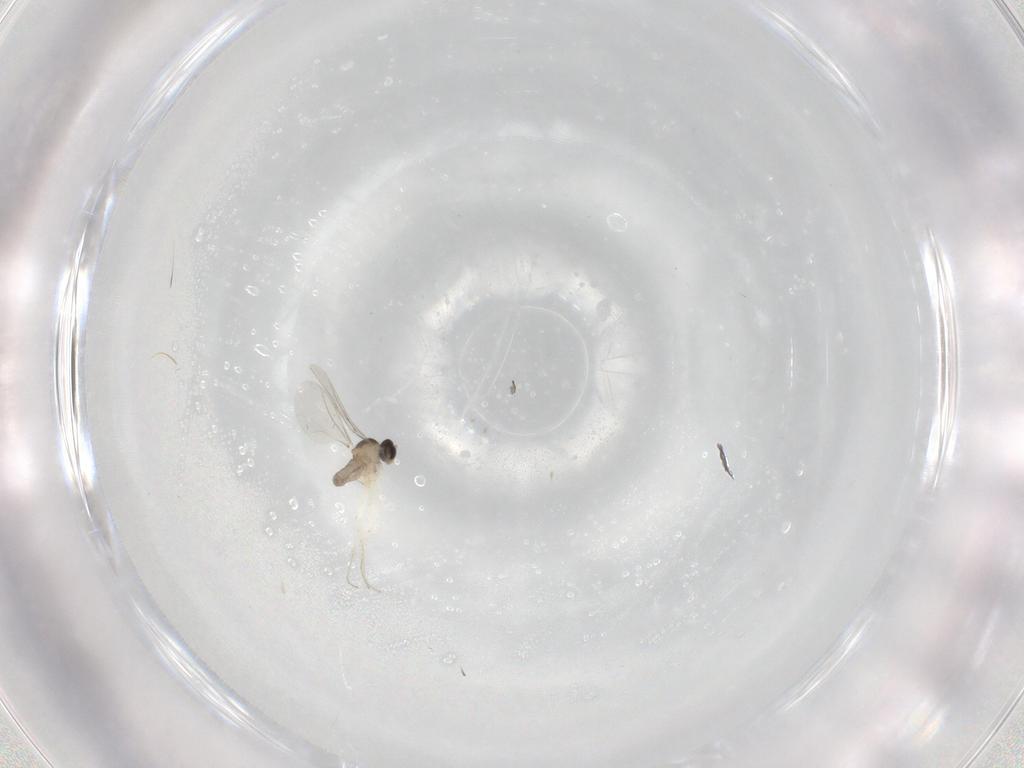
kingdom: Animalia
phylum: Arthropoda
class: Insecta
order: Diptera
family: Cecidomyiidae
